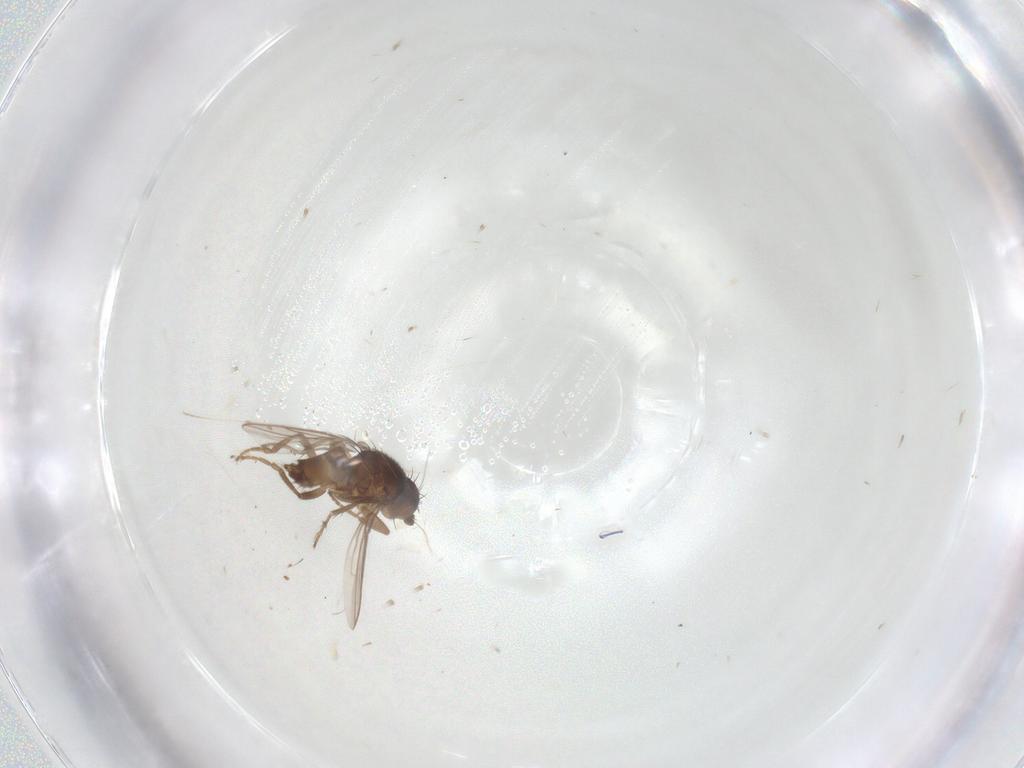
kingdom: Animalia
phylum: Arthropoda
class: Insecta
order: Diptera
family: Sphaeroceridae
